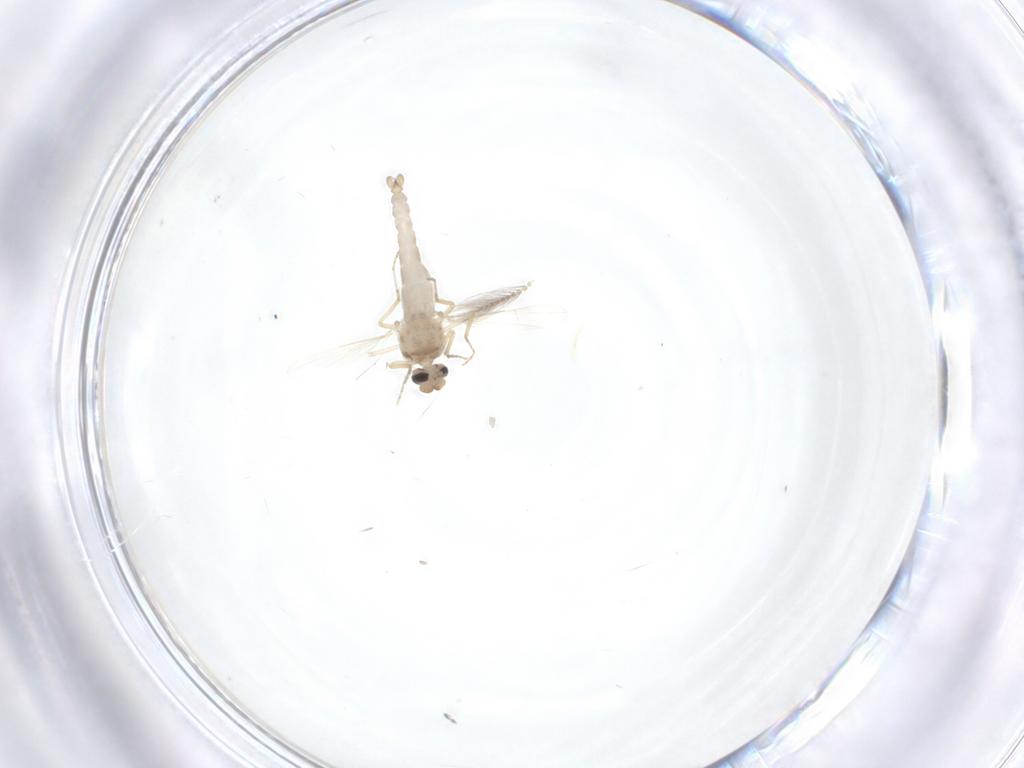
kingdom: Animalia
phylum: Arthropoda
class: Insecta
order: Diptera
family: Ceratopogonidae
